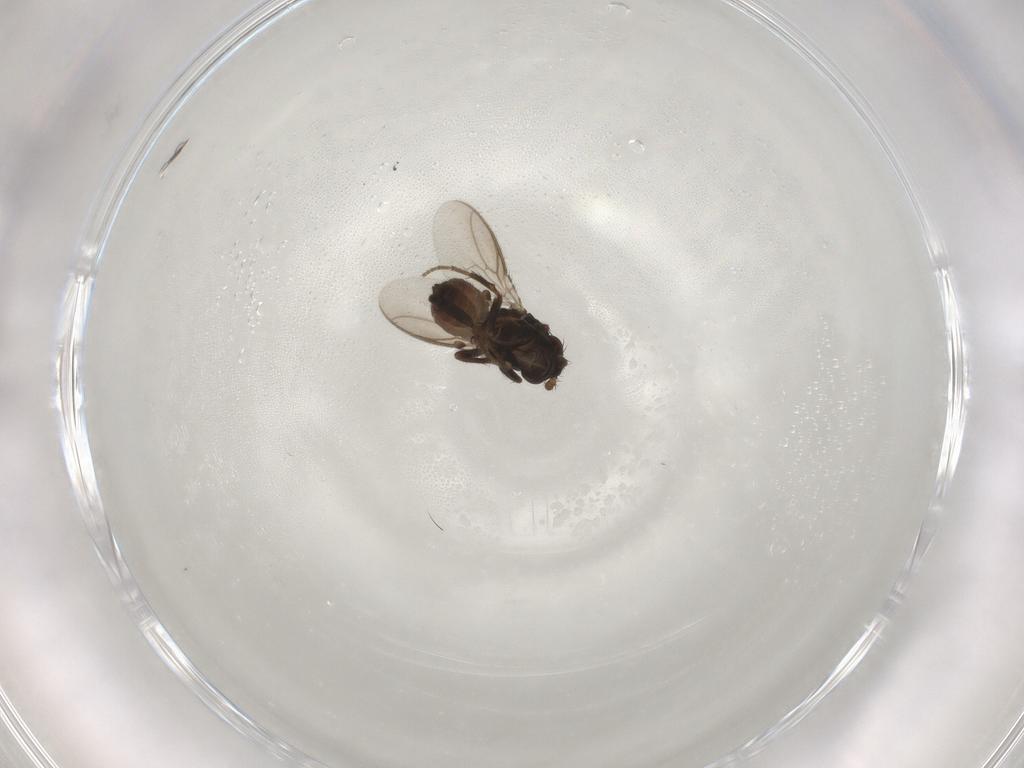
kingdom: Animalia
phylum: Arthropoda
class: Insecta
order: Diptera
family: Sphaeroceridae
